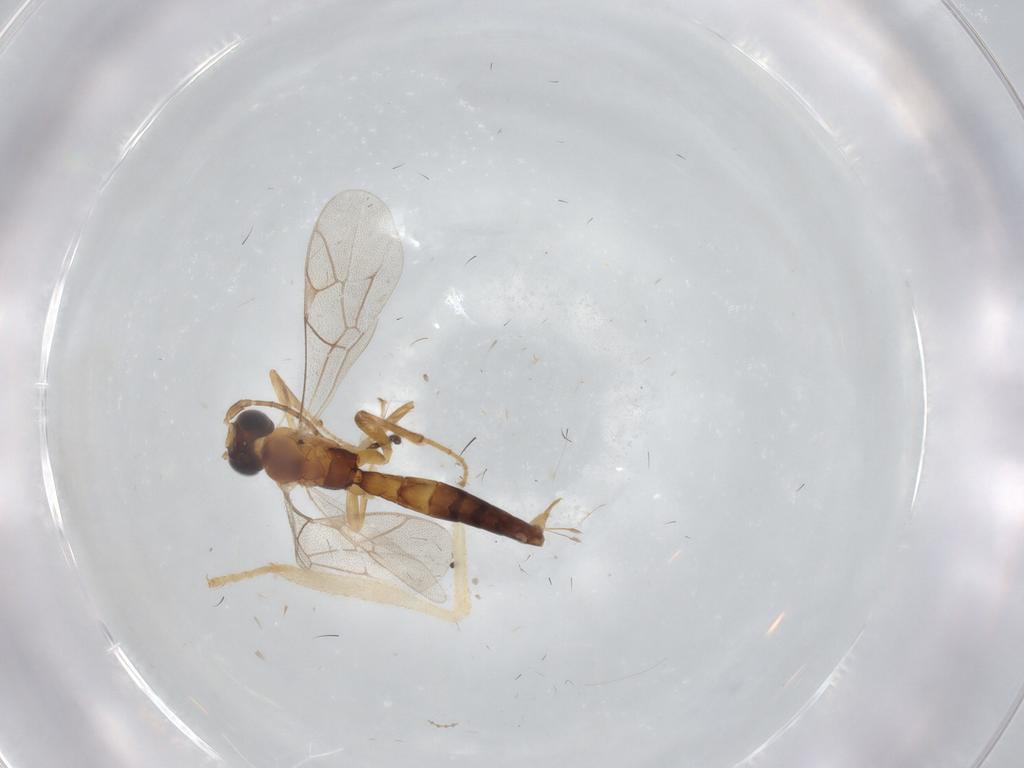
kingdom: Animalia
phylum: Arthropoda
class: Insecta
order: Hymenoptera
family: Ichneumonidae
